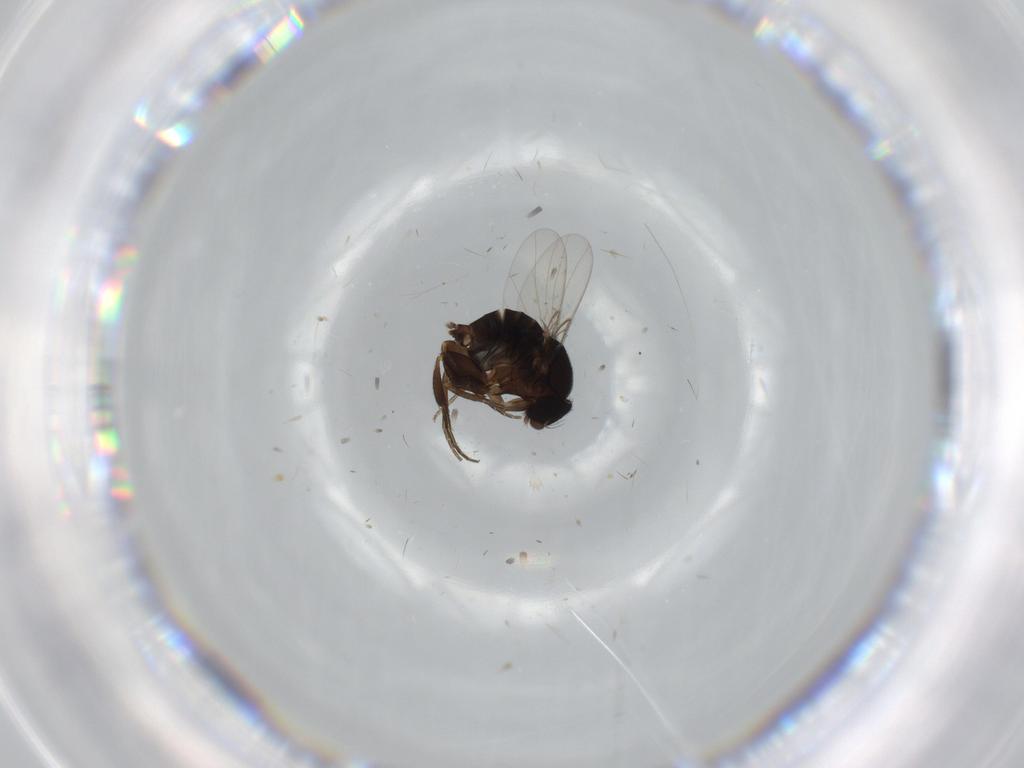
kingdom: Animalia
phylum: Arthropoda
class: Insecta
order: Diptera
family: Phoridae
